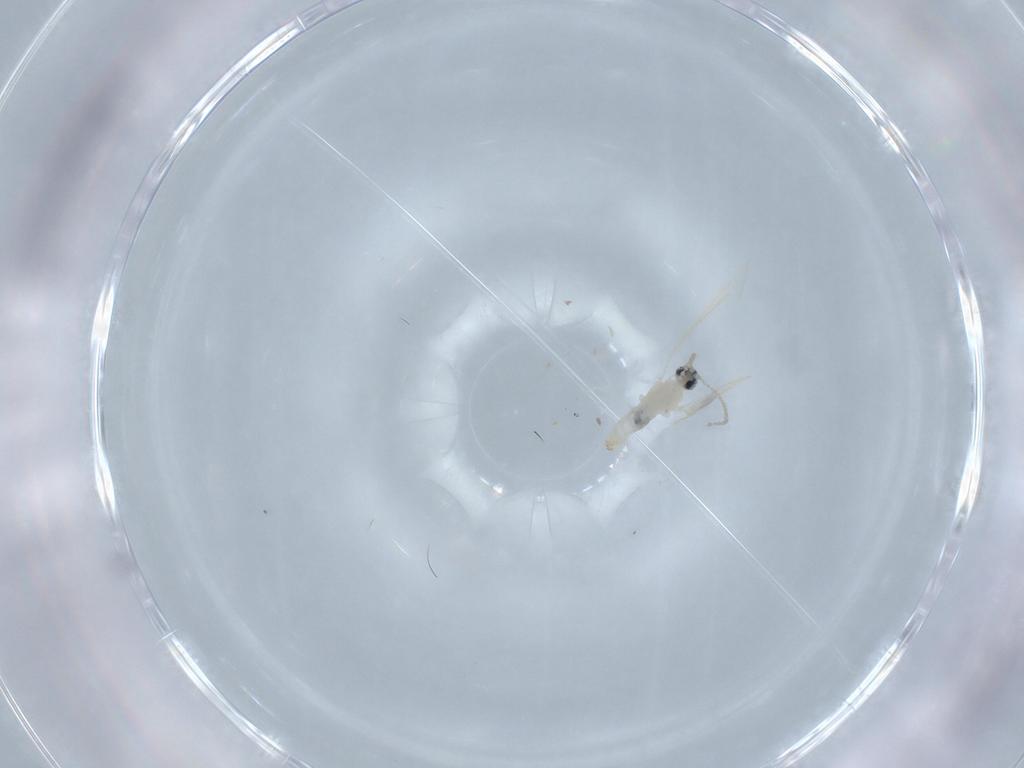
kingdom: Animalia
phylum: Arthropoda
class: Insecta
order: Diptera
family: Cecidomyiidae
